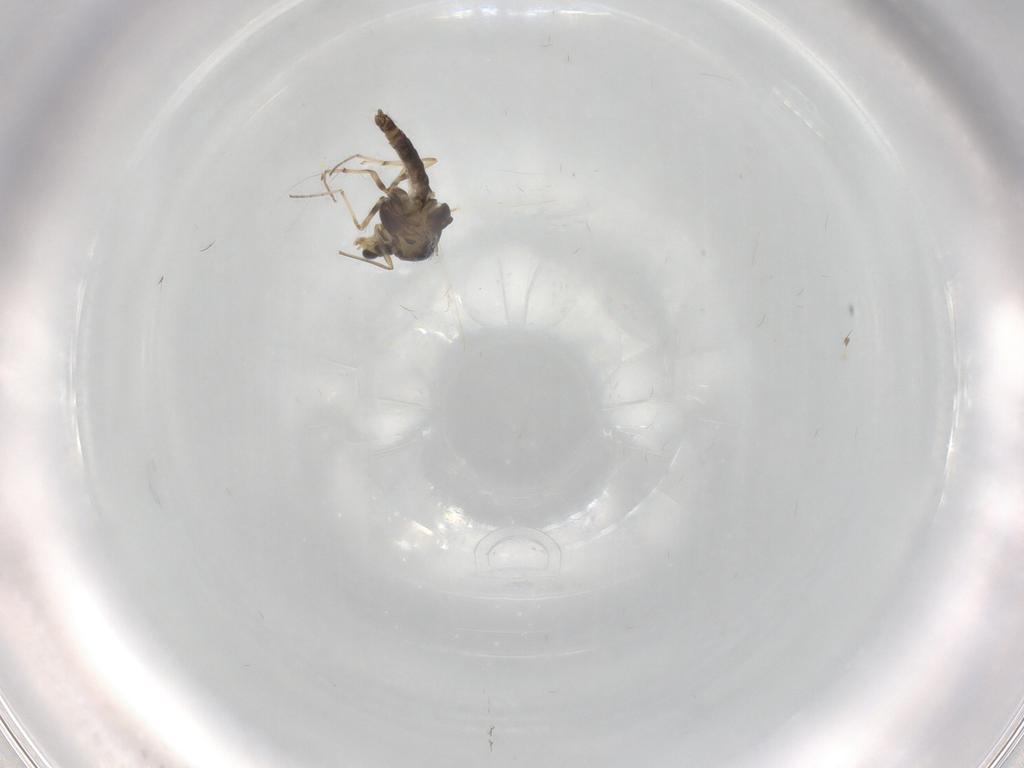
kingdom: Animalia
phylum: Arthropoda
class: Insecta
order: Diptera
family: Chironomidae
